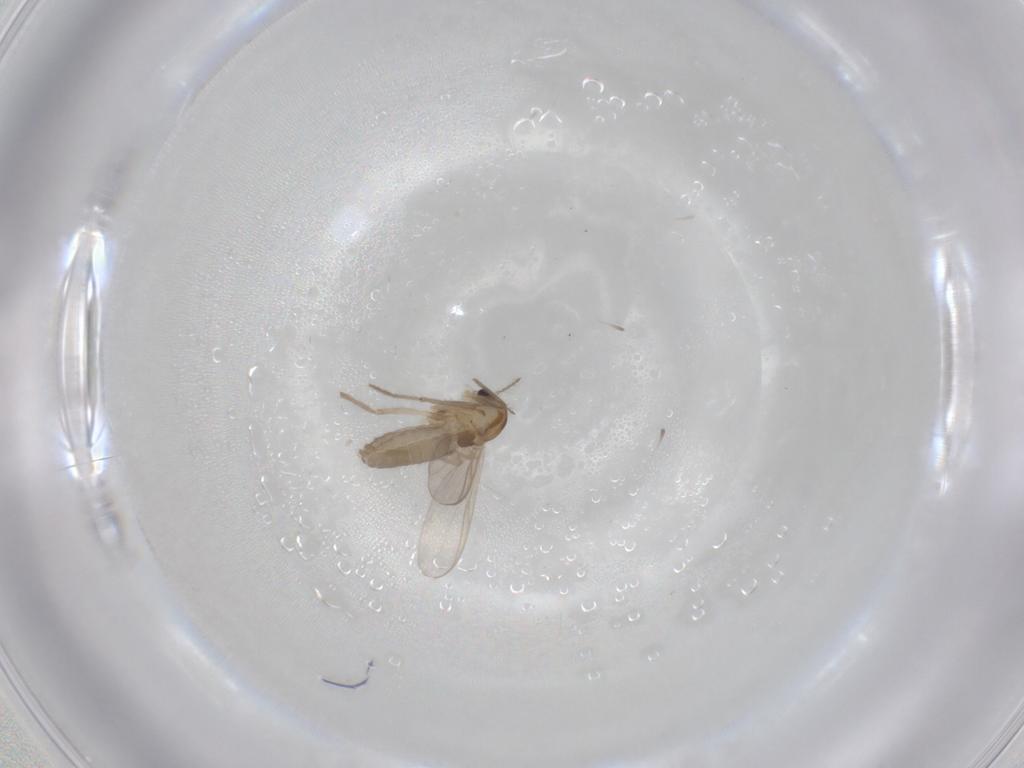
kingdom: Animalia
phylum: Arthropoda
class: Insecta
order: Diptera
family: Chironomidae
